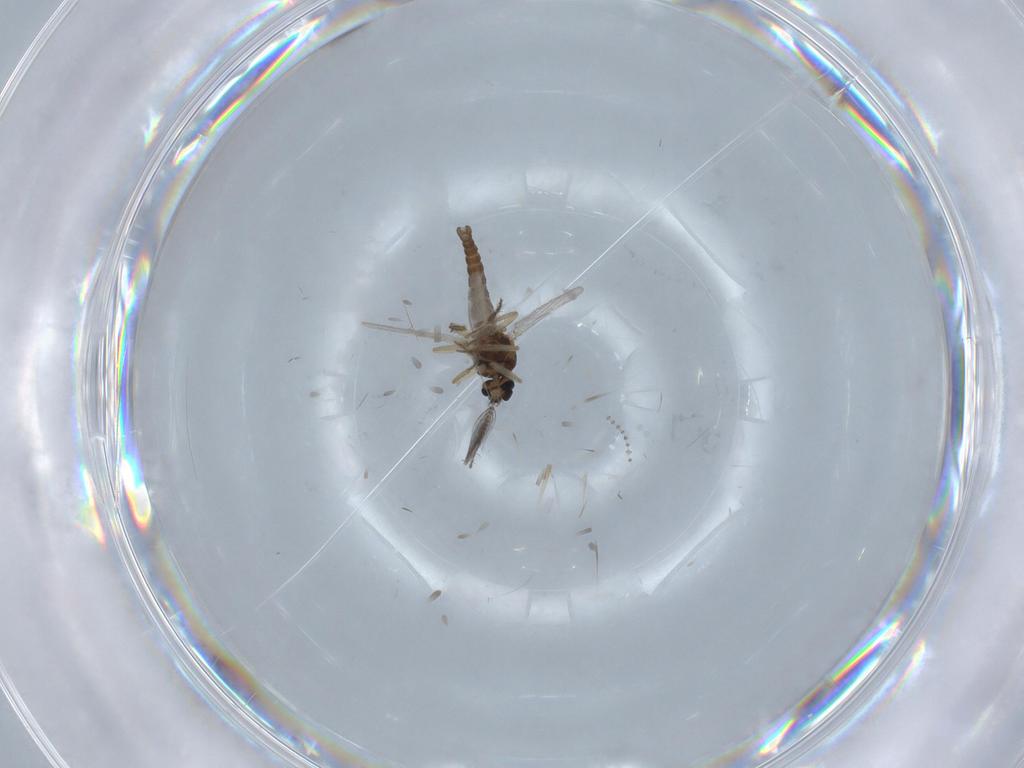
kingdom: Animalia
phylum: Arthropoda
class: Insecta
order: Diptera
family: Ceratopogonidae
